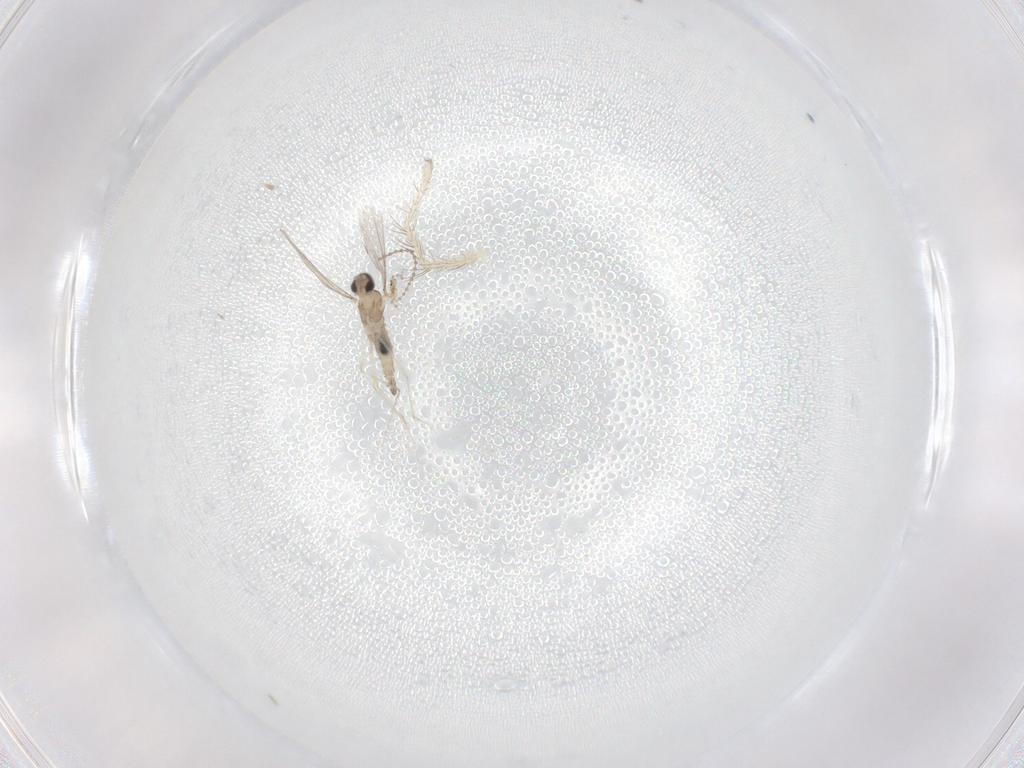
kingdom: Animalia
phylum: Arthropoda
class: Insecta
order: Diptera
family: Cecidomyiidae
